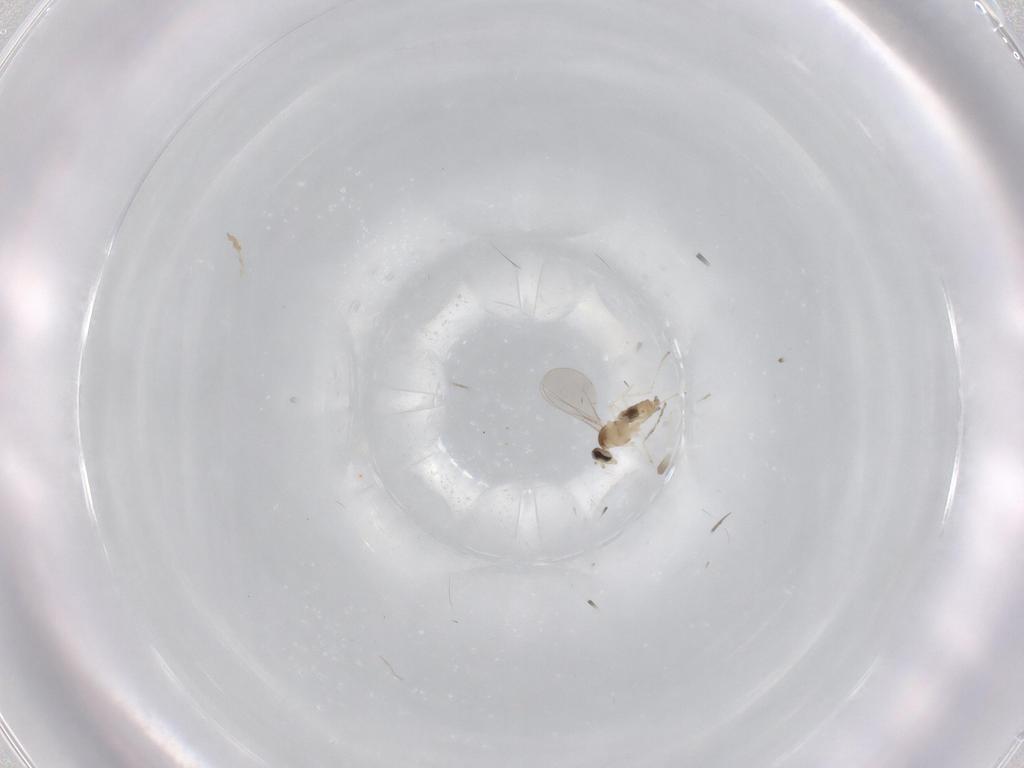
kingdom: Animalia
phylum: Arthropoda
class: Insecta
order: Diptera
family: Cecidomyiidae
